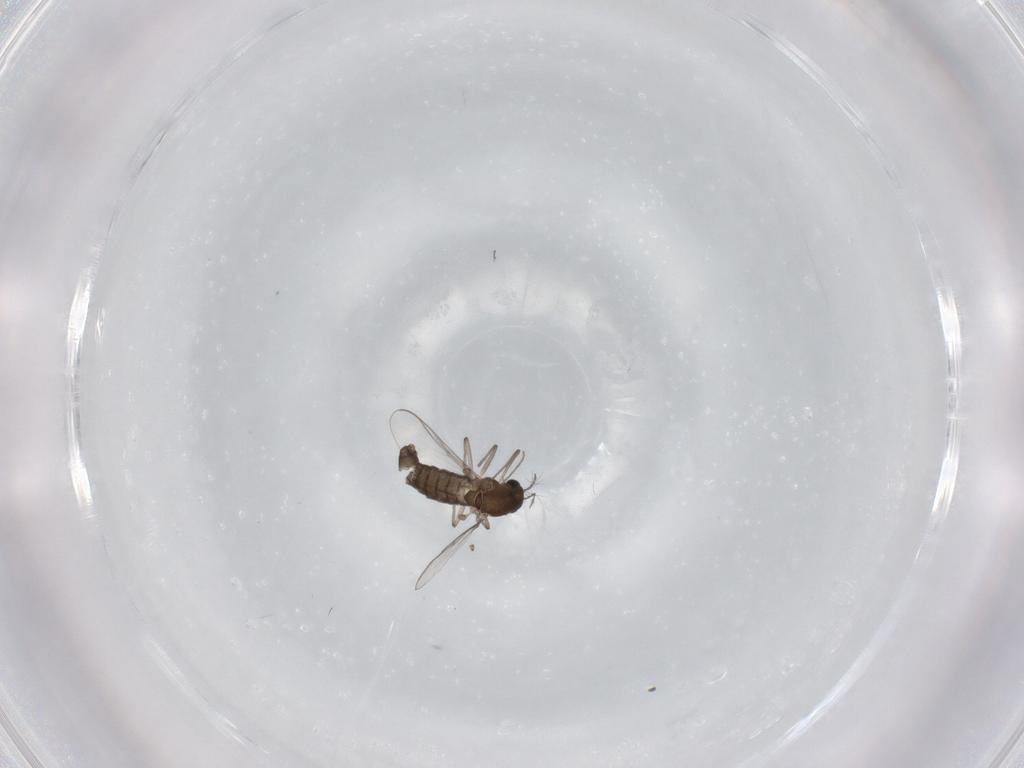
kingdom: Animalia
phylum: Arthropoda
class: Insecta
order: Diptera
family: Chironomidae
